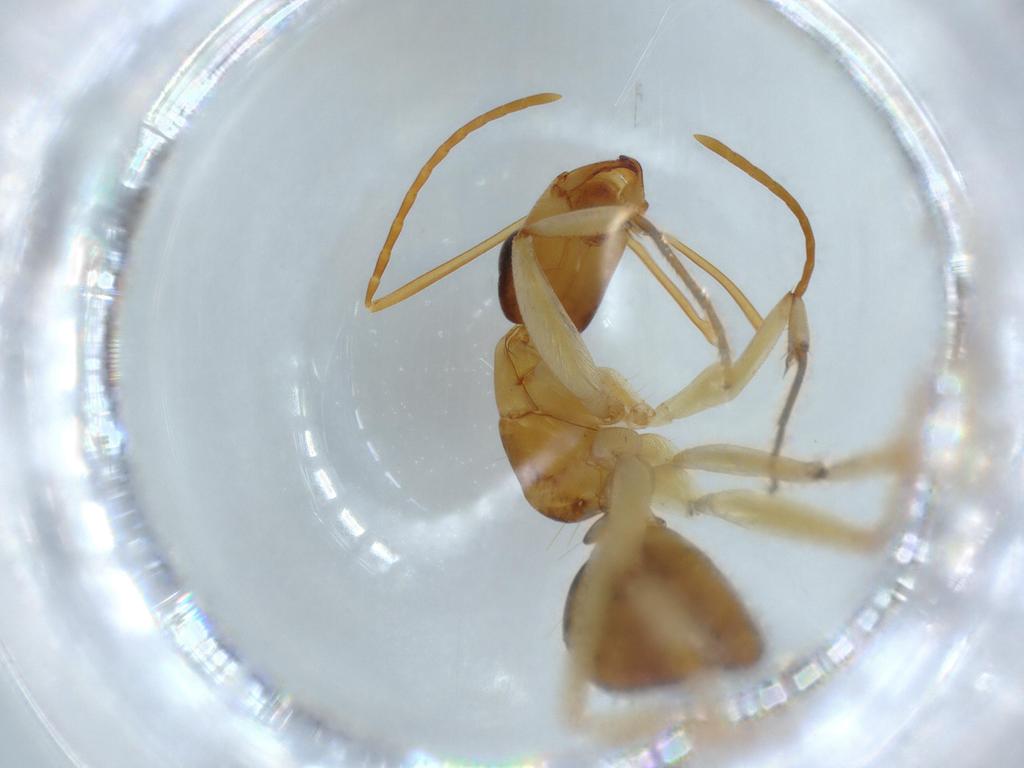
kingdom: Animalia
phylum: Arthropoda
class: Insecta
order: Hymenoptera
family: Formicidae
